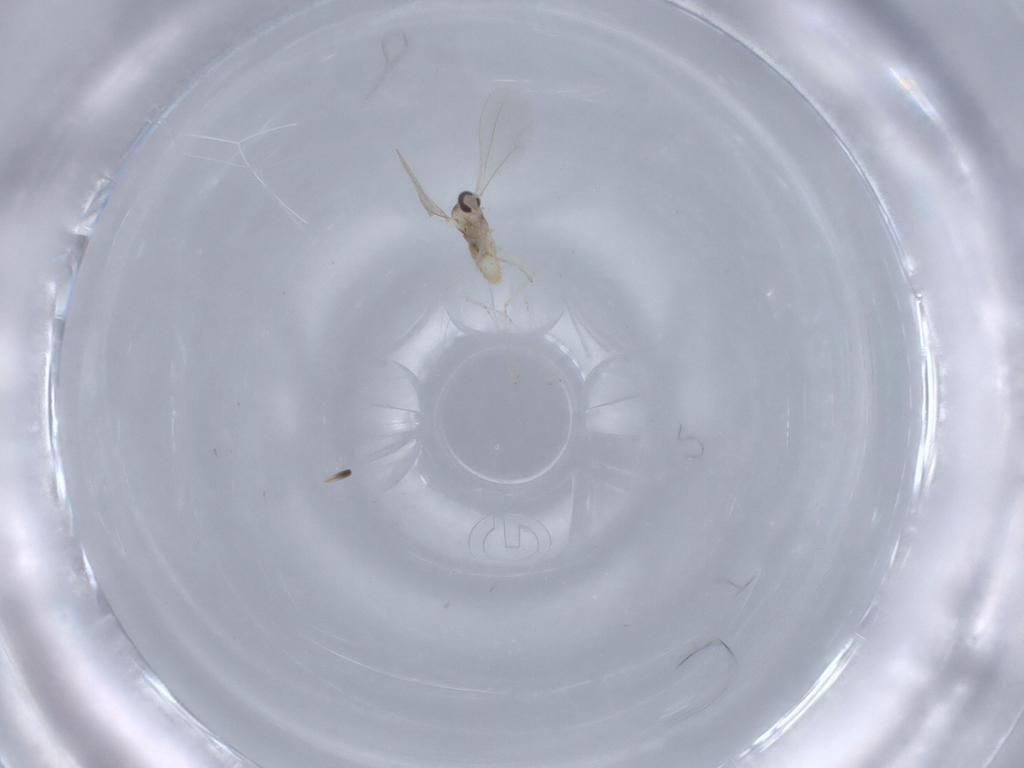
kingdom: Animalia
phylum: Arthropoda
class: Insecta
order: Diptera
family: Cecidomyiidae
